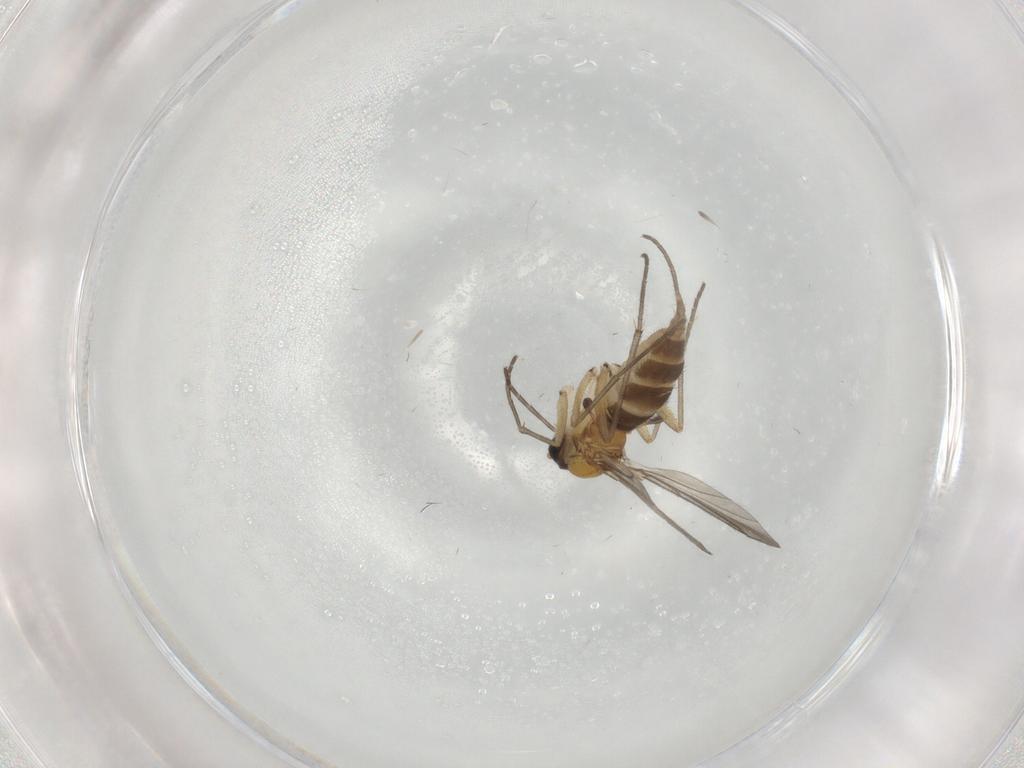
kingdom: Animalia
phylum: Arthropoda
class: Insecta
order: Diptera
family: Sciaridae
